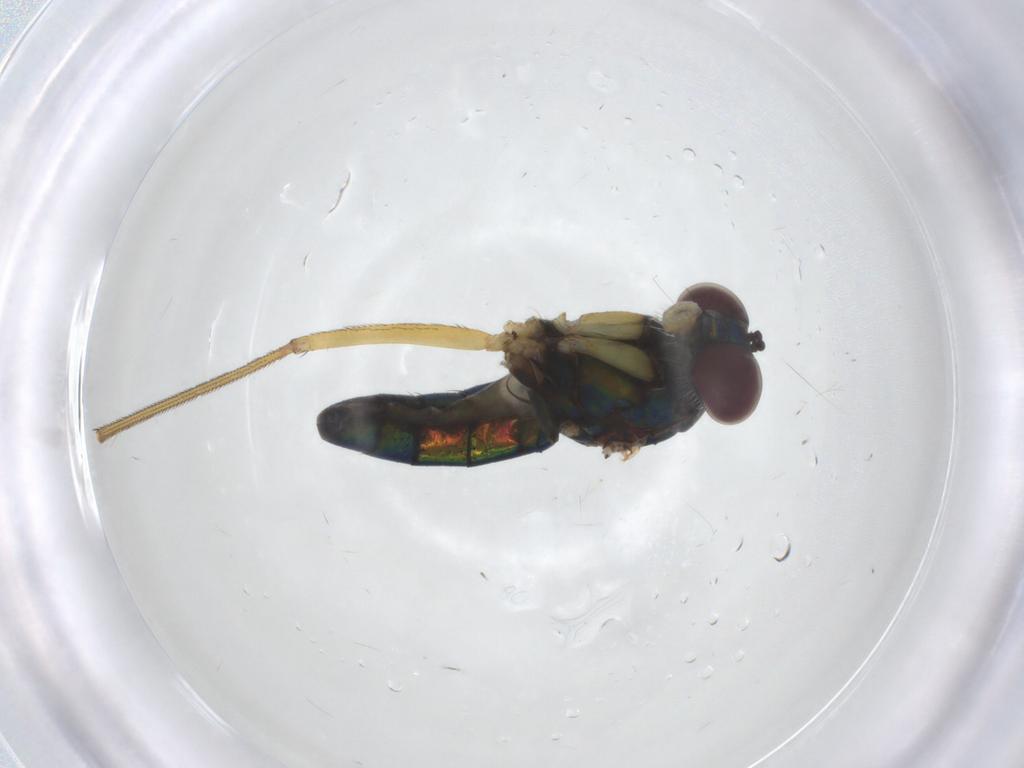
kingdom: Animalia
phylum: Arthropoda
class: Insecta
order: Diptera
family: Dolichopodidae
